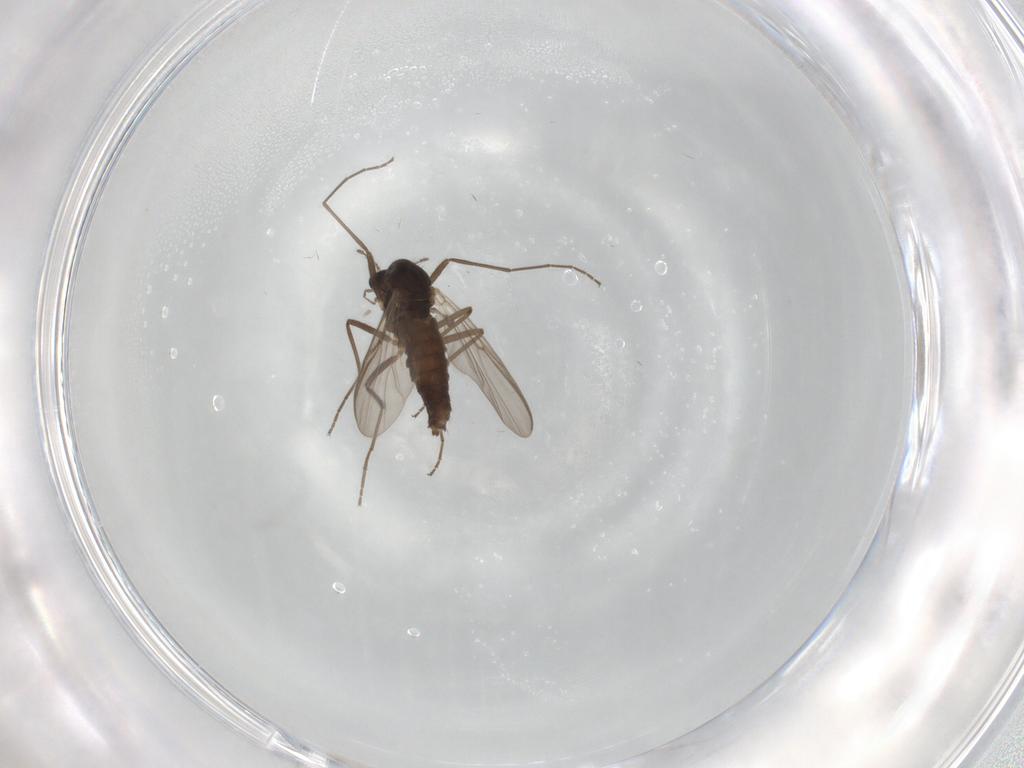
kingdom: Animalia
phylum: Arthropoda
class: Insecta
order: Diptera
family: Chironomidae
